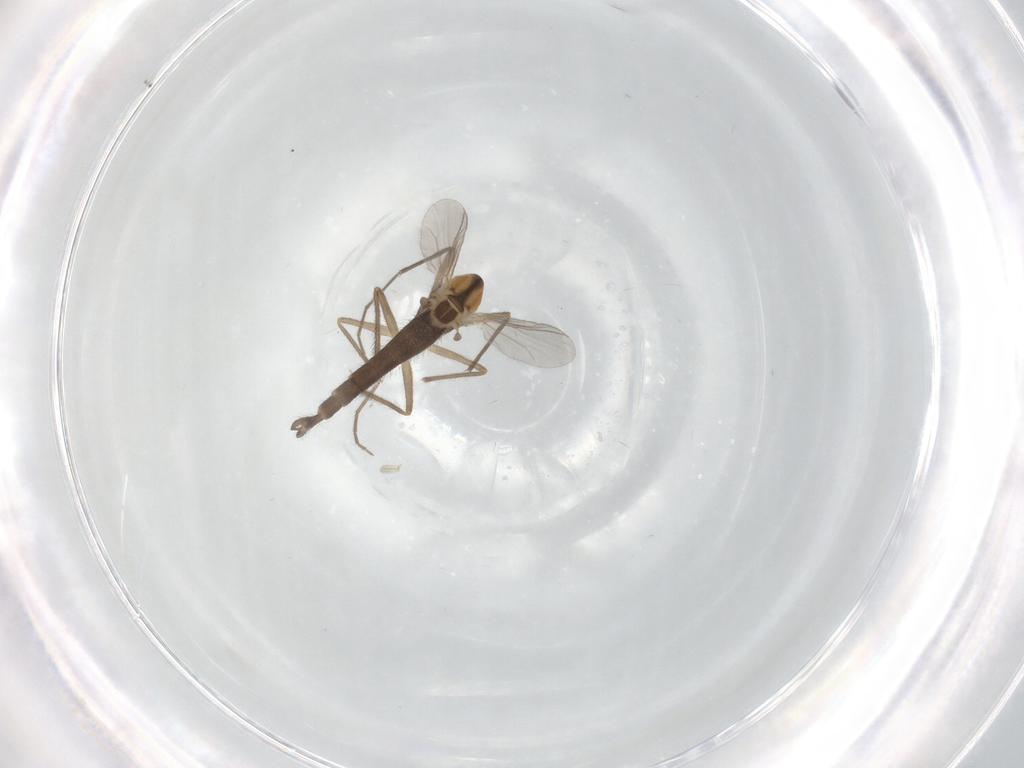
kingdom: Animalia
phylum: Arthropoda
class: Insecta
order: Diptera
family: Chironomidae
